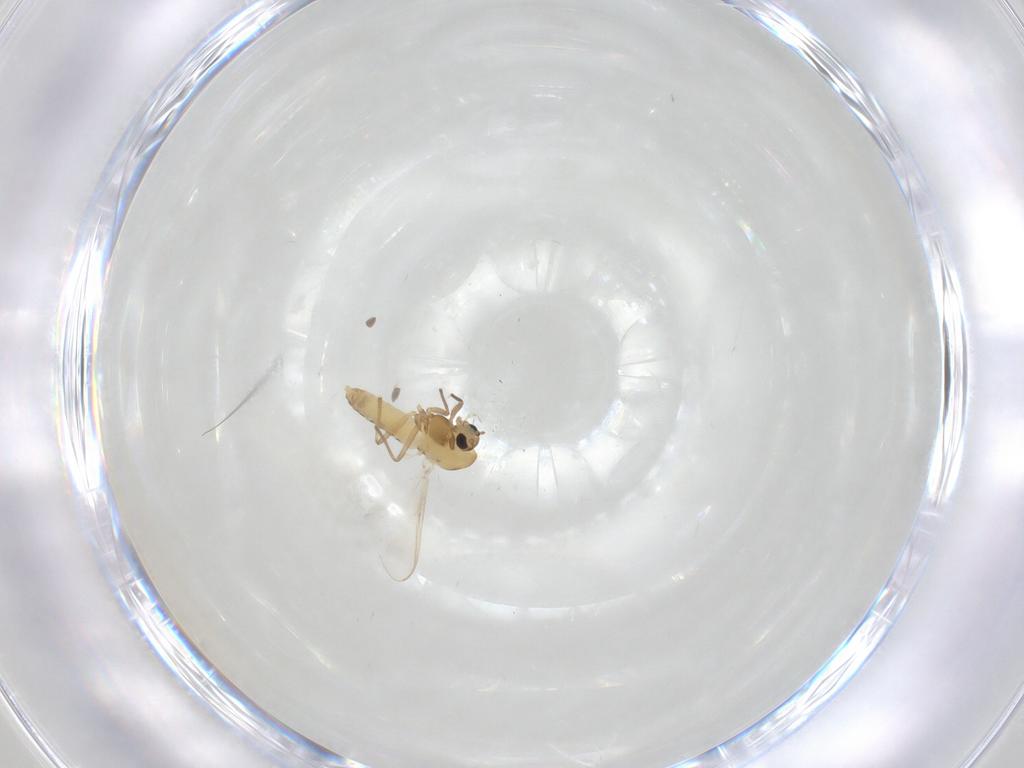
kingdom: Animalia
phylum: Arthropoda
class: Insecta
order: Diptera
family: Chironomidae
